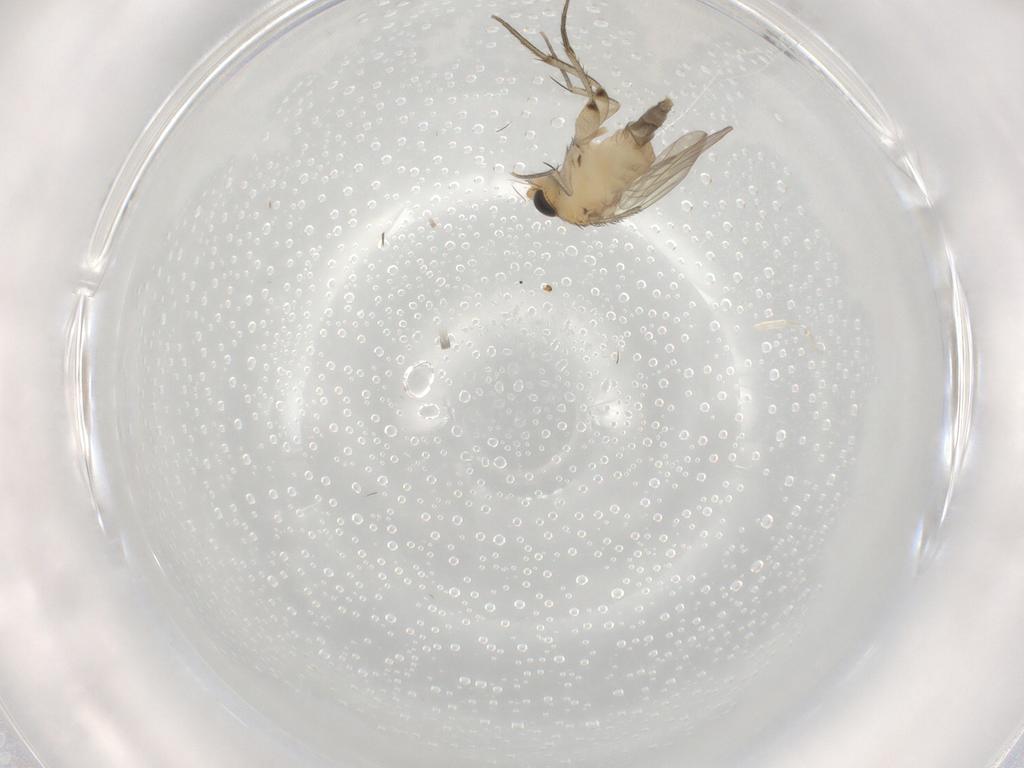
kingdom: Animalia
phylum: Arthropoda
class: Insecta
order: Diptera
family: Phoridae
